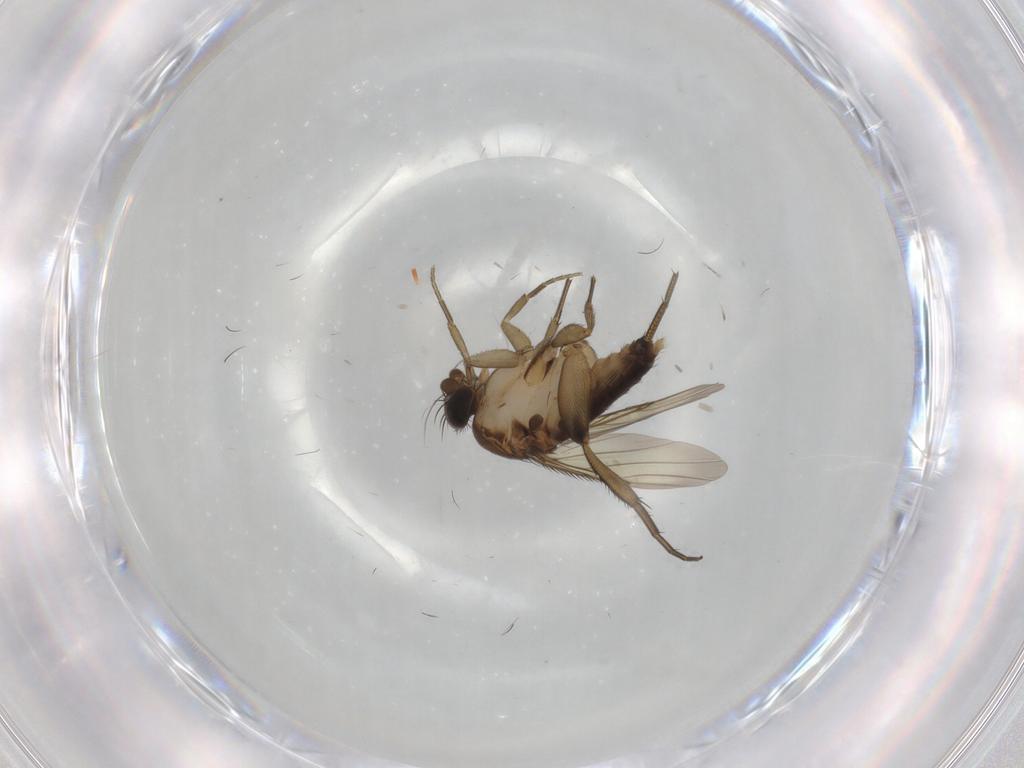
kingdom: Animalia
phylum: Arthropoda
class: Insecta
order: Diptera
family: Phoridae
